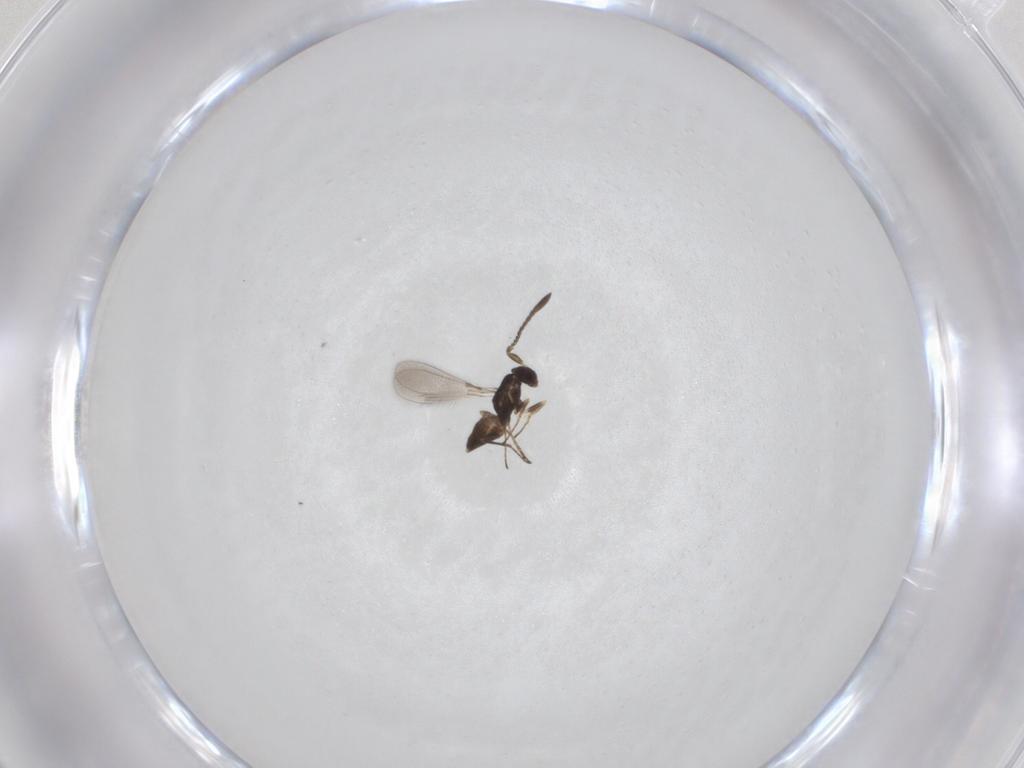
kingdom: Animalia
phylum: Arthropoda
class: Insecta
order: Hymenoptera
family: Mymaridae
